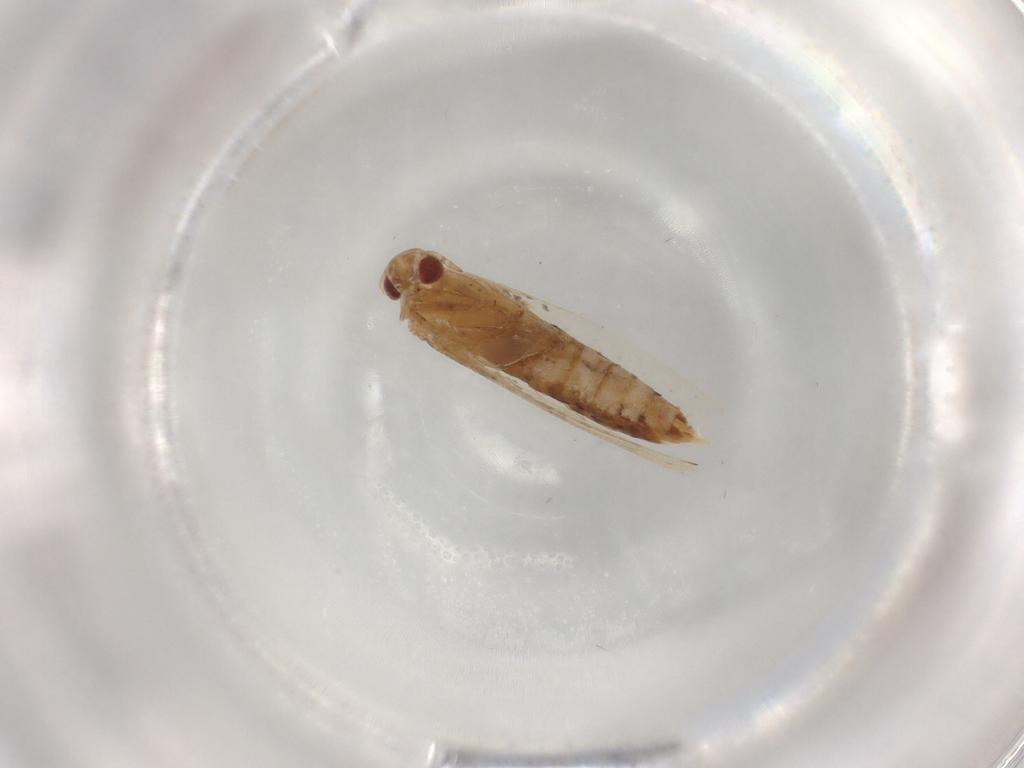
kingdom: Animalia
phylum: Arthropoda
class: Insecta
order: Lepidoptera
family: Cosmopterigidae
